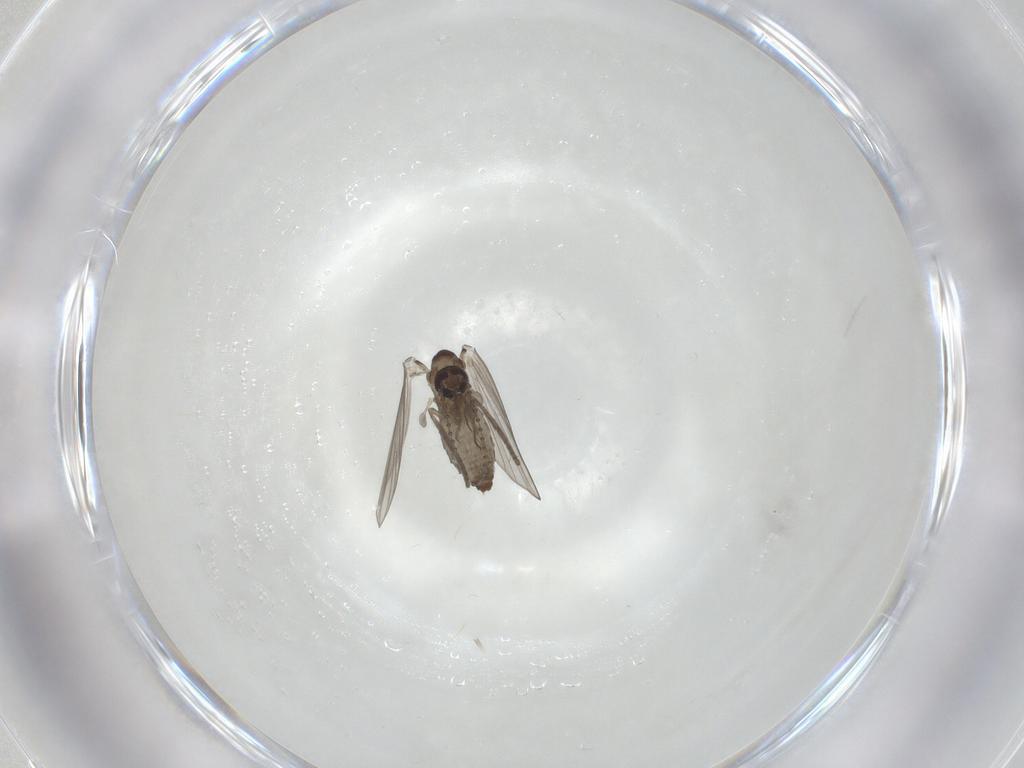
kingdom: Animalia
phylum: Arthropoda
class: Insecta
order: Diptera
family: Psychodidae
